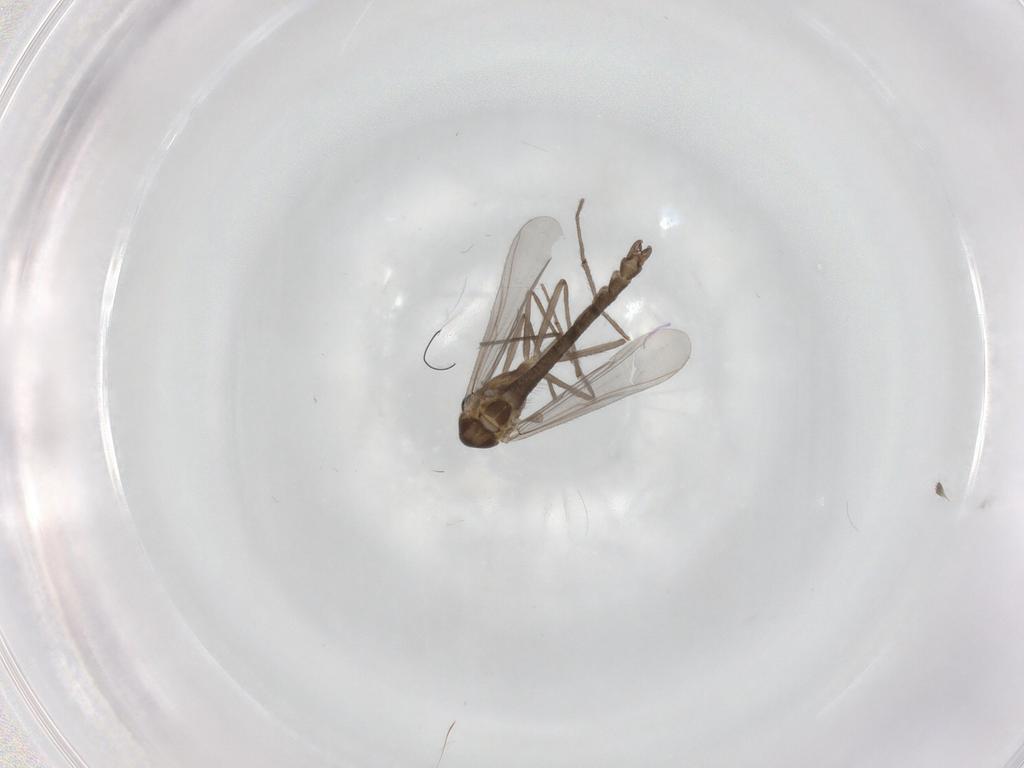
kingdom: Animalia
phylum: Arthropoda
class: Insecta
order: Diptera
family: Chironomidae
